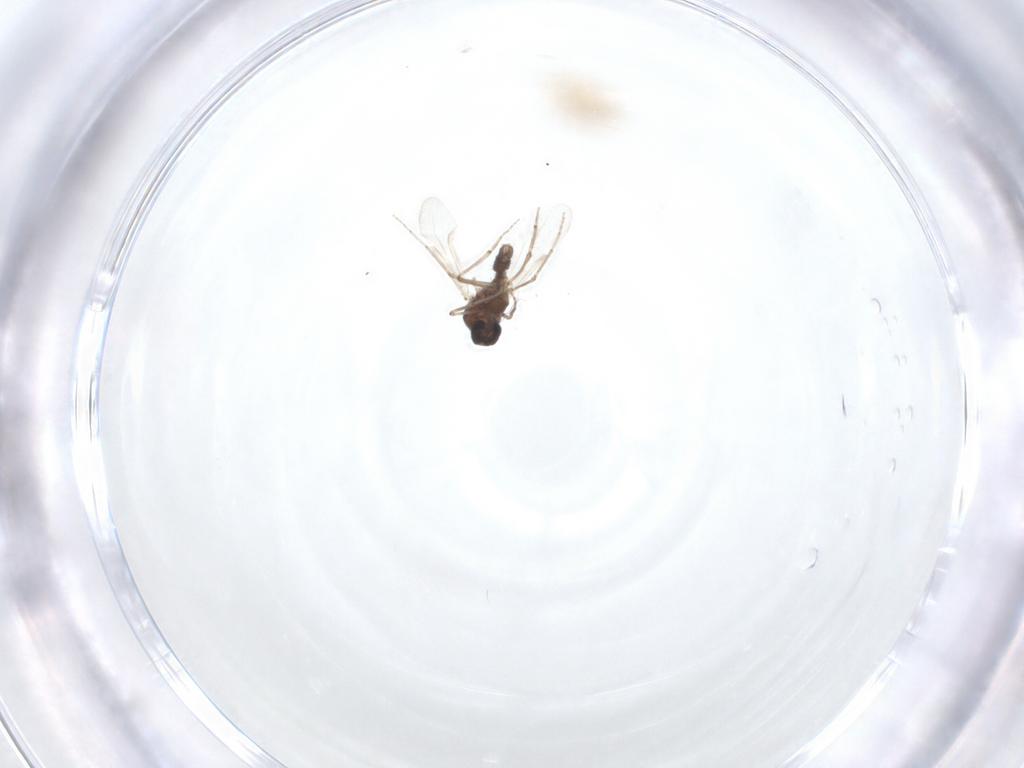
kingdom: Animalia
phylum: Arthropoda
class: Insecta
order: Diptera
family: Ceratopogonidae
